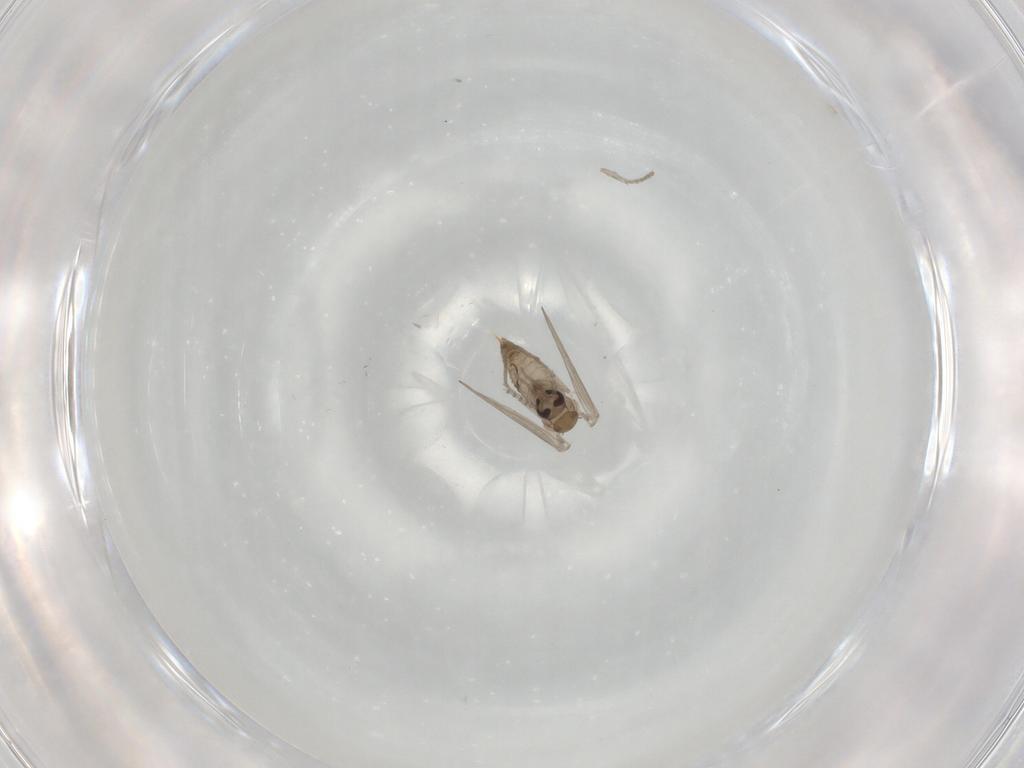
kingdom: Animalia
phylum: Arthropoda
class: Insecta
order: Diptera
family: Psychodidae
